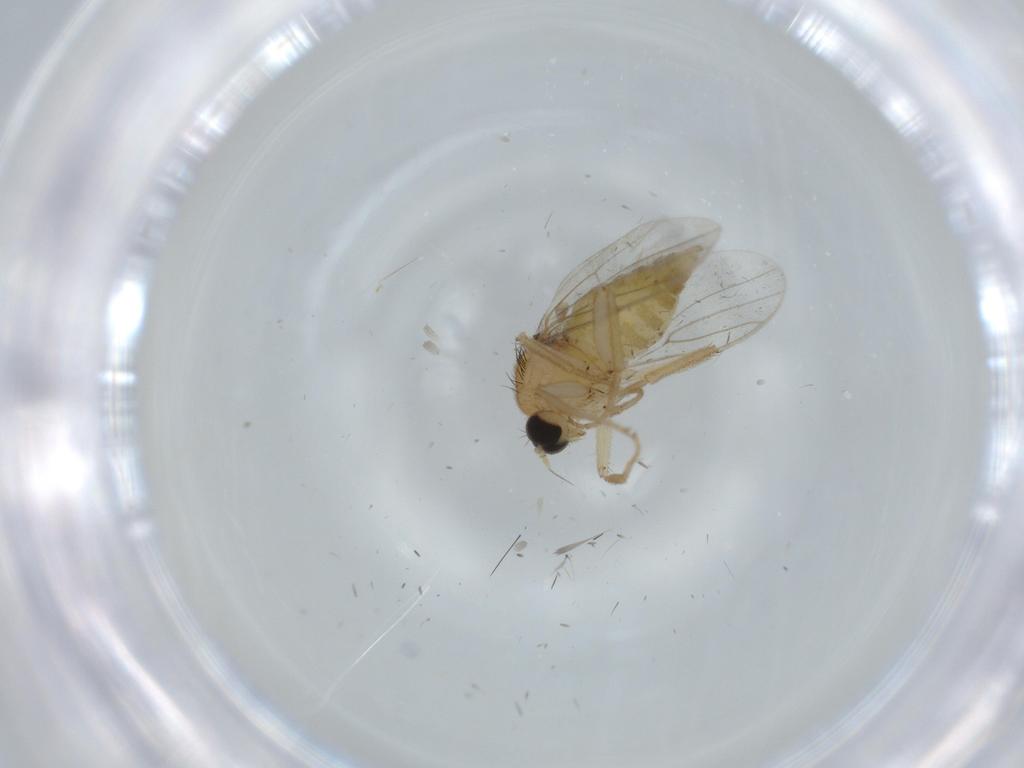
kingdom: Animalia
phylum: Arthropoda
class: Insecta
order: Diptera
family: Hybotidae
